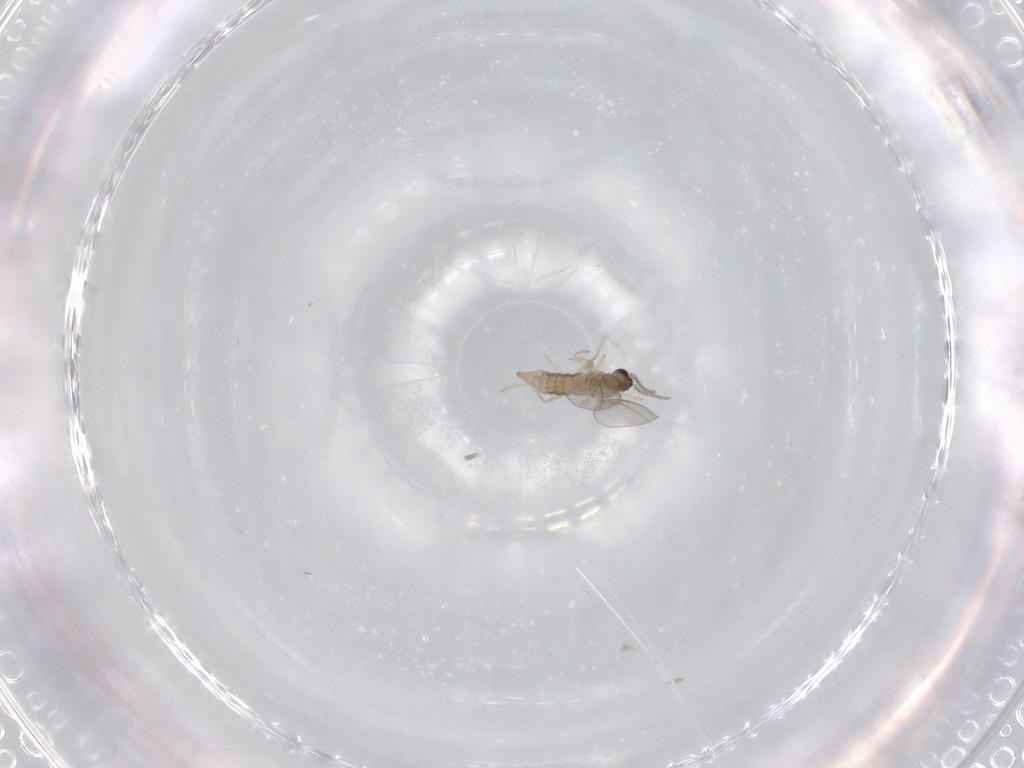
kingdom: Animalia
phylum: Arthropoda
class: Insecta
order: Diptera
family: Cecidomyiidae
